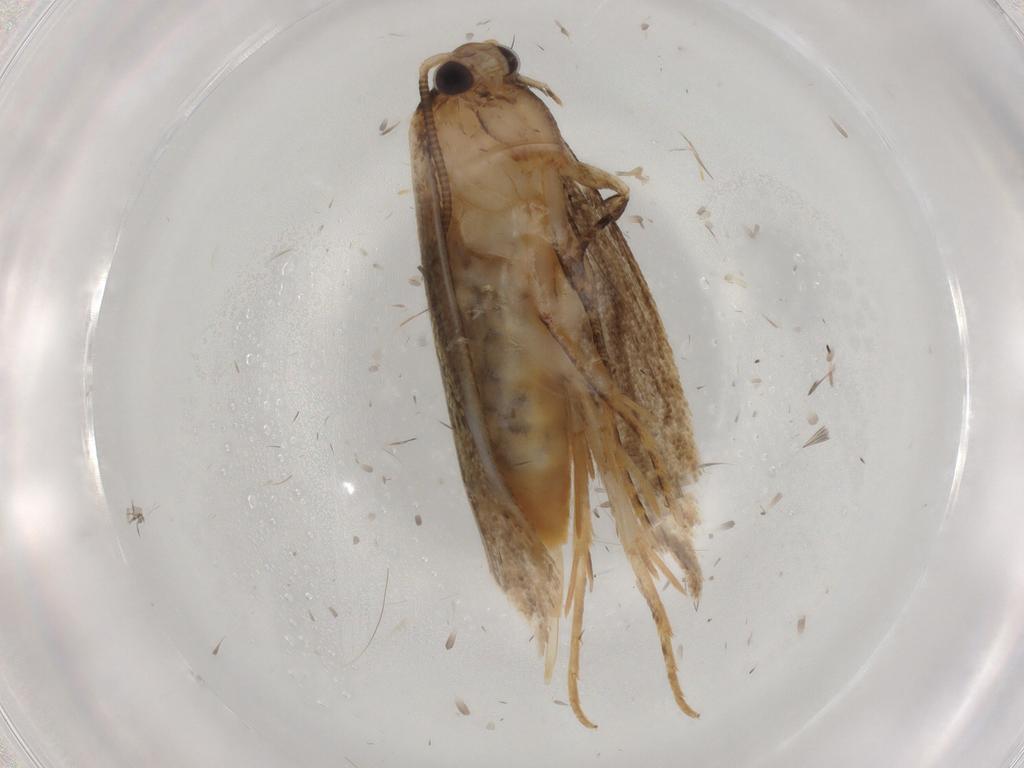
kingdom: Animalia
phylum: Arthropoda
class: Insecta
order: Lepidoptera
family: Tineidae
